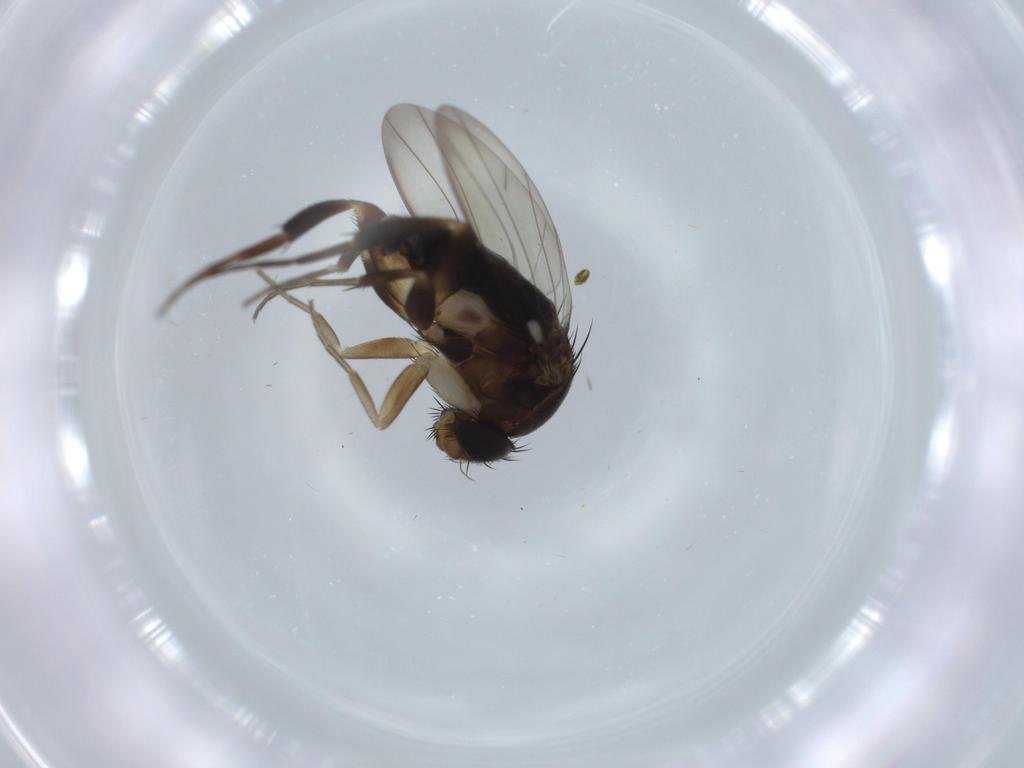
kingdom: Animalia
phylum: Arthropoda
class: Insecta
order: Diptera
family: Phoridae
